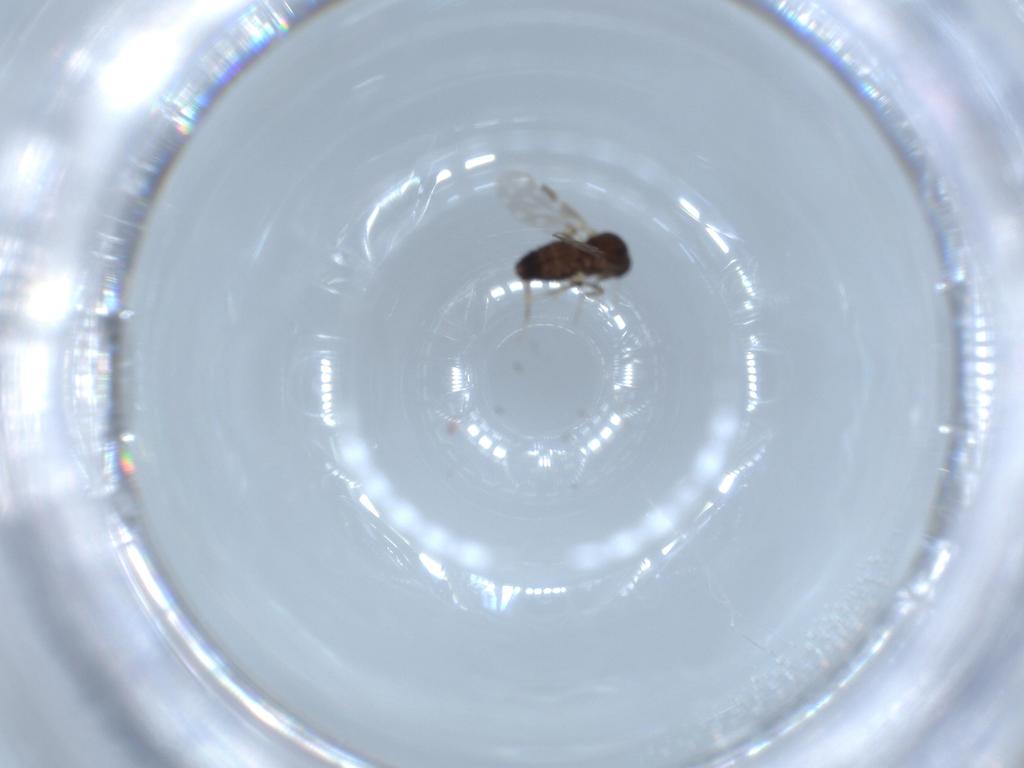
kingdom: Animalia
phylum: Arthropoda
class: Insecta
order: Diptera
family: Ceratopogonidae
